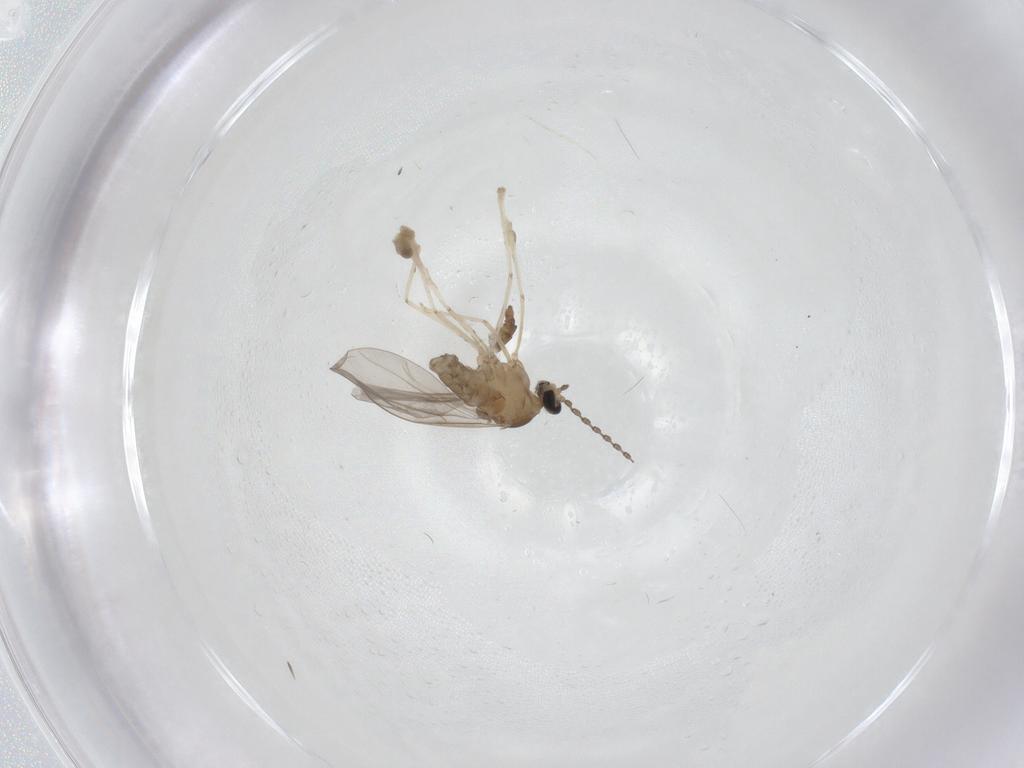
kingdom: Animalia
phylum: Arthropoda
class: Insecta
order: Diptera
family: Cecidomyiidae
